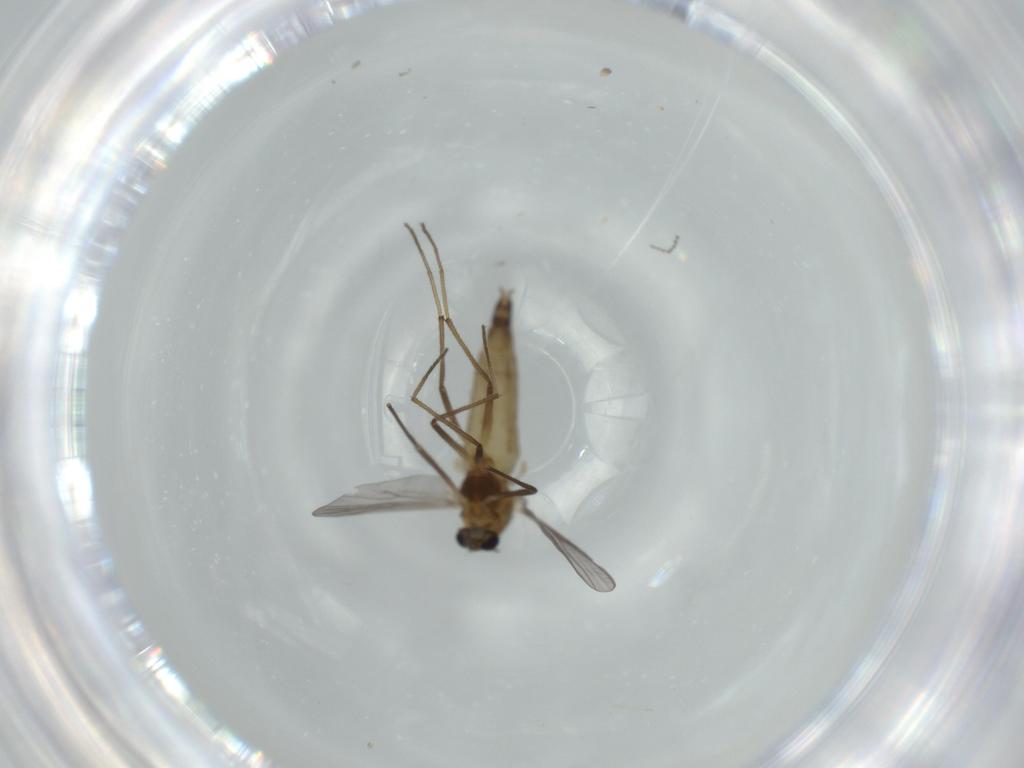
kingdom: Animalia
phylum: Arthropoda
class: Insecta
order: Diptera
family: Chironomidae
